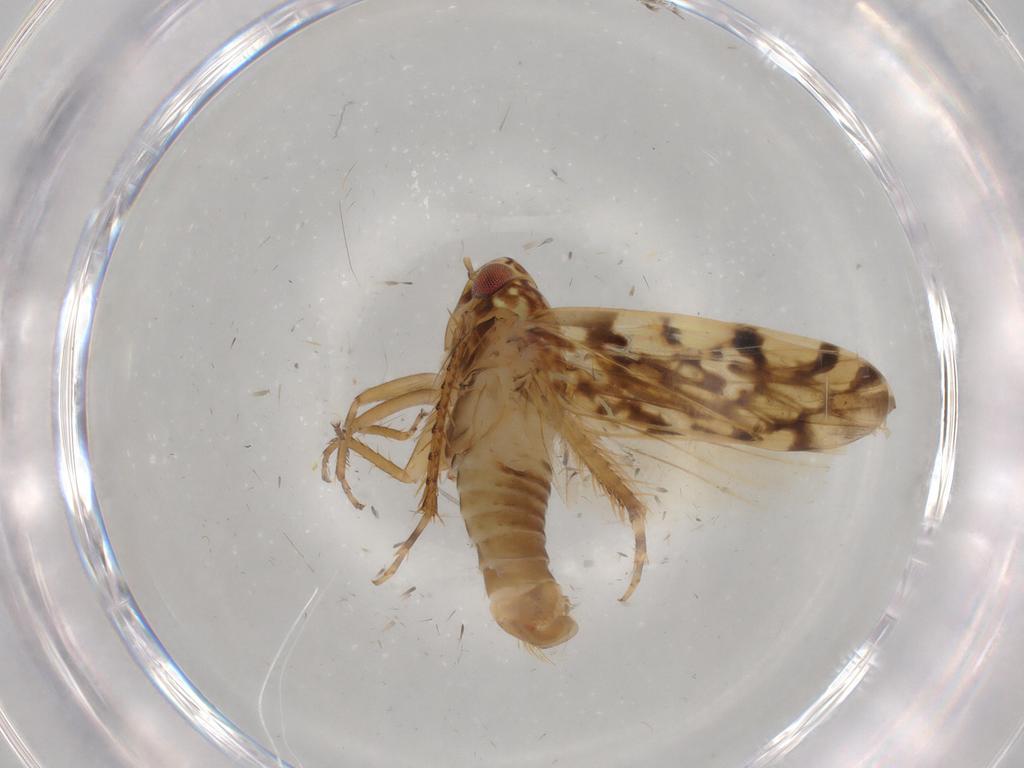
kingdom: Animalia
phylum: Arthropoda
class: Insecta
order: Hemiptera
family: Cicadellidae
